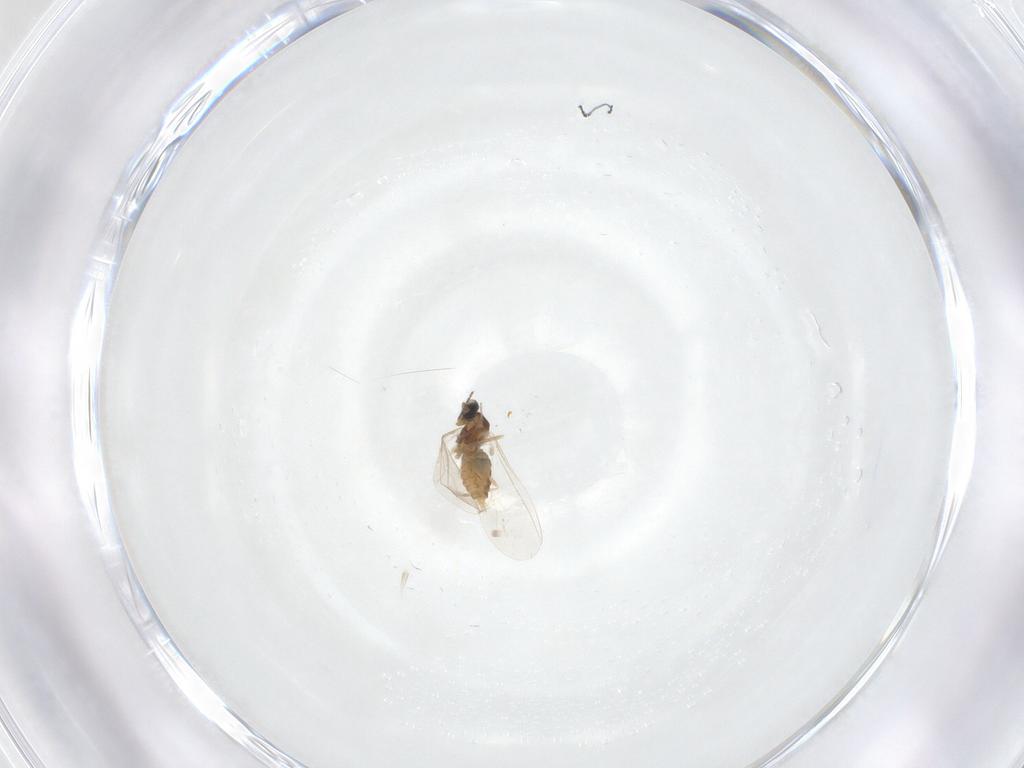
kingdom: Animalia
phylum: Arthropoda
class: Insecta
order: Diptera
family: Cecidomyiidae
